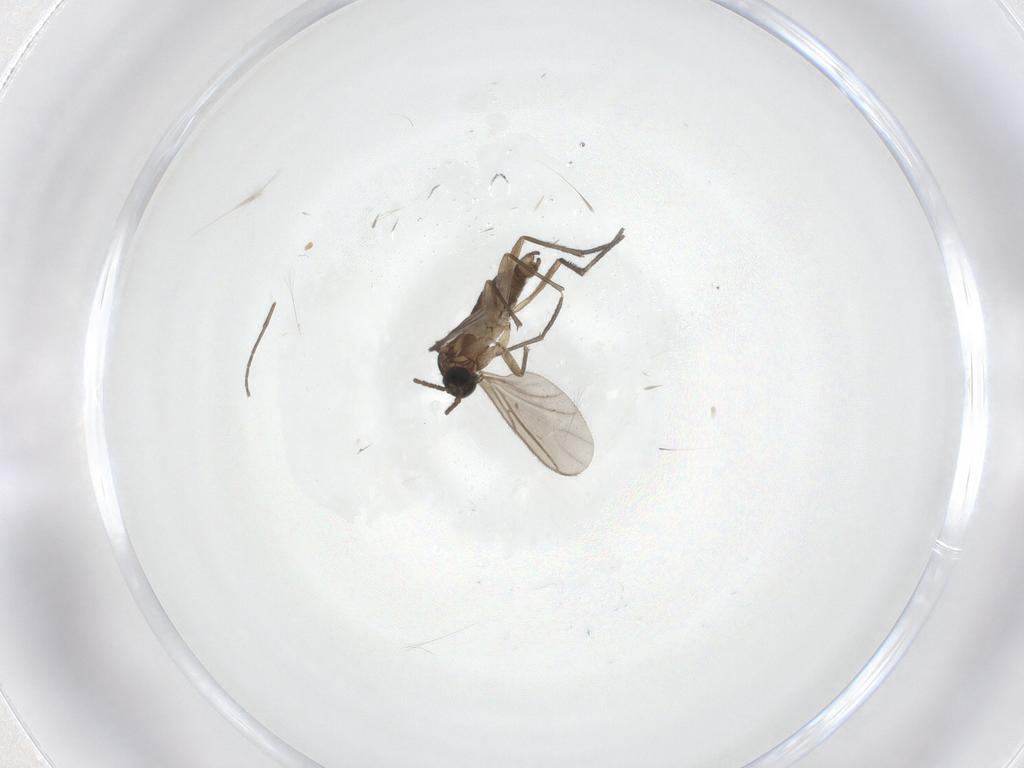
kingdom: Animalia
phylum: Arthropoda
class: Insecta
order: Diptera
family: Sciaridae
